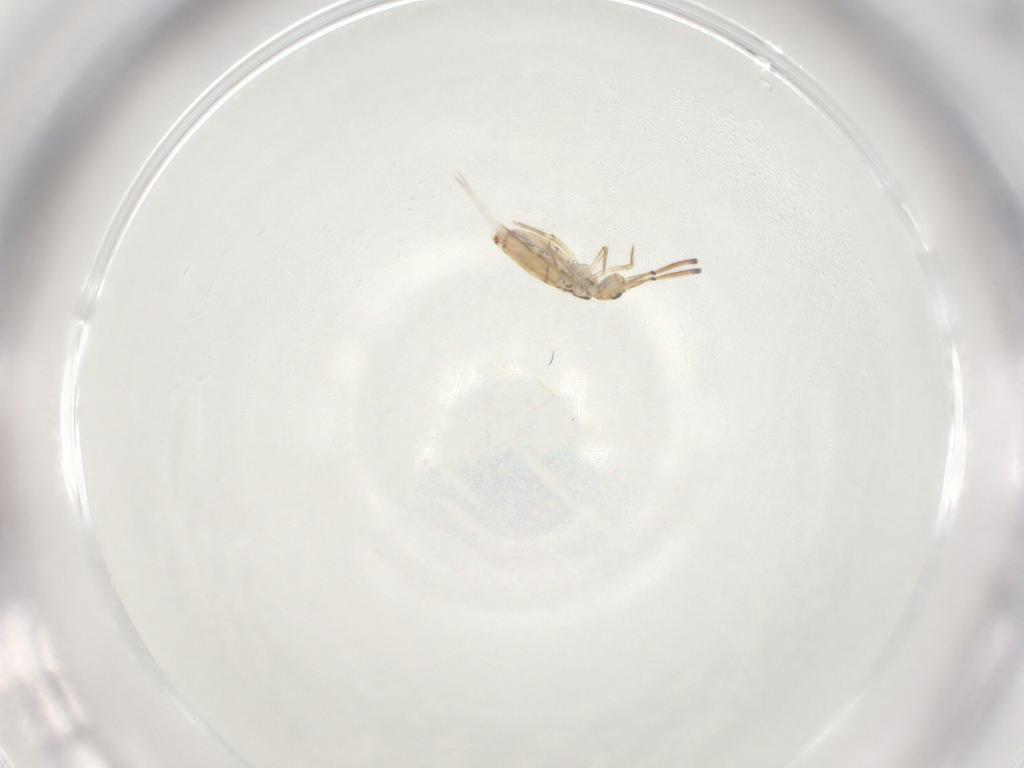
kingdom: Animalia
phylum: Arthropoda
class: Collembola
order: Entomobryomorpha
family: Paronellidae
